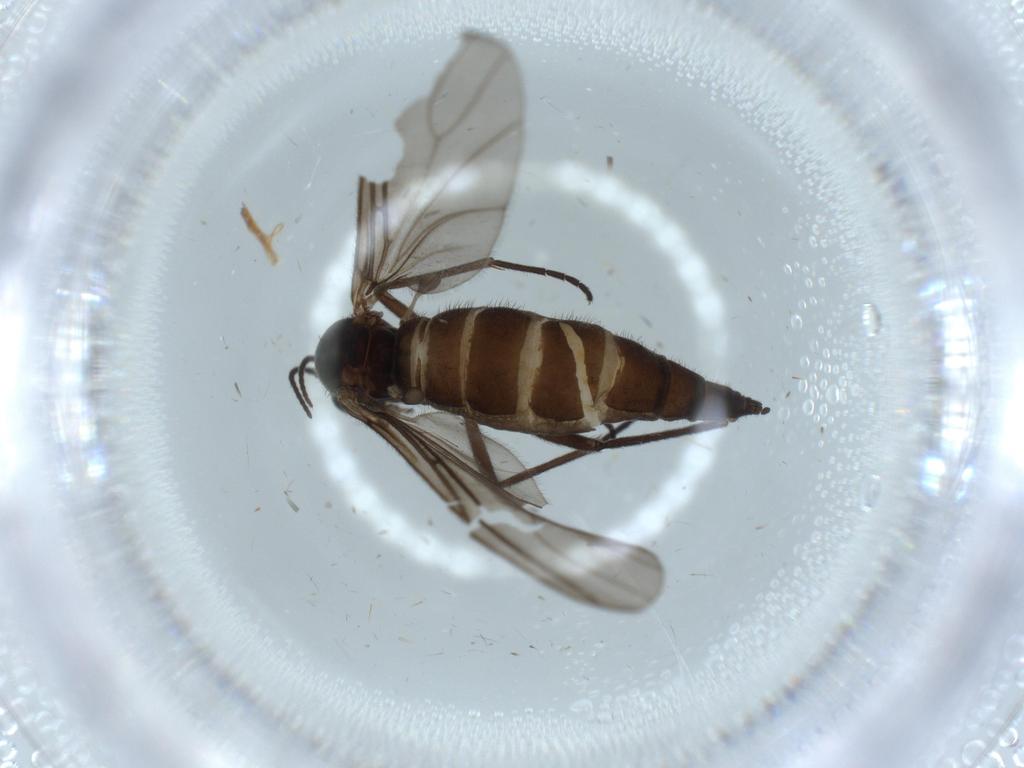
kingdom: Animalia
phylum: Arthropoda
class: Insecta
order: Diptera
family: Sciaridae
